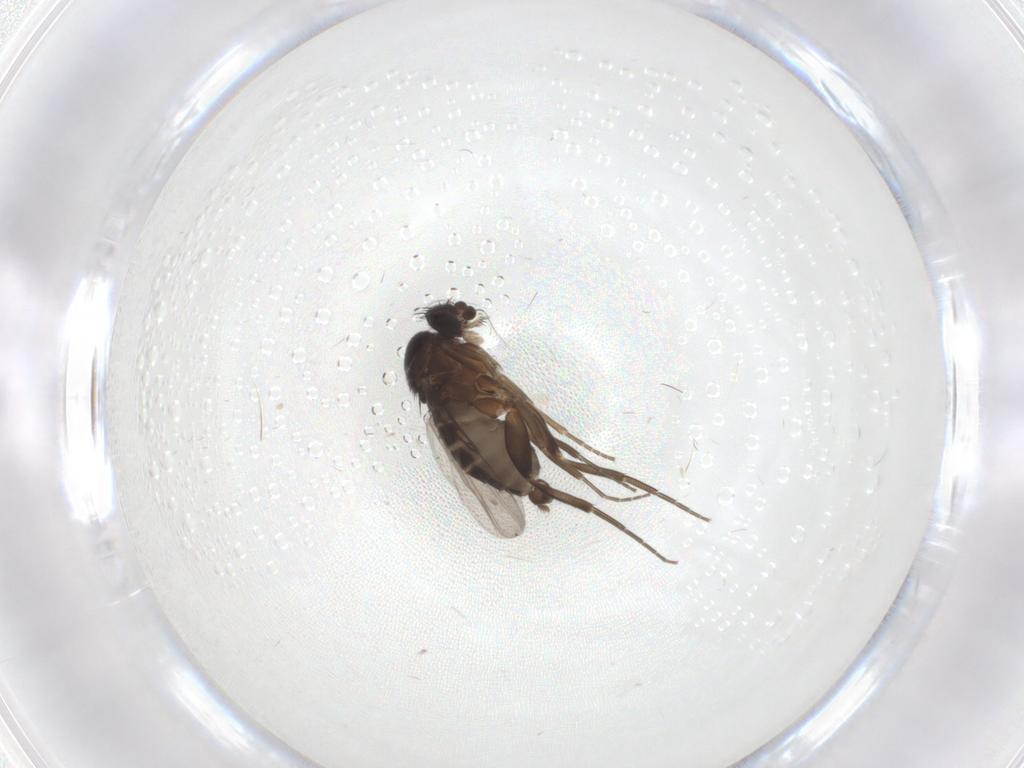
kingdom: Animalia
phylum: Arthropoda
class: Insecta
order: Diptera
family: Phoridae
